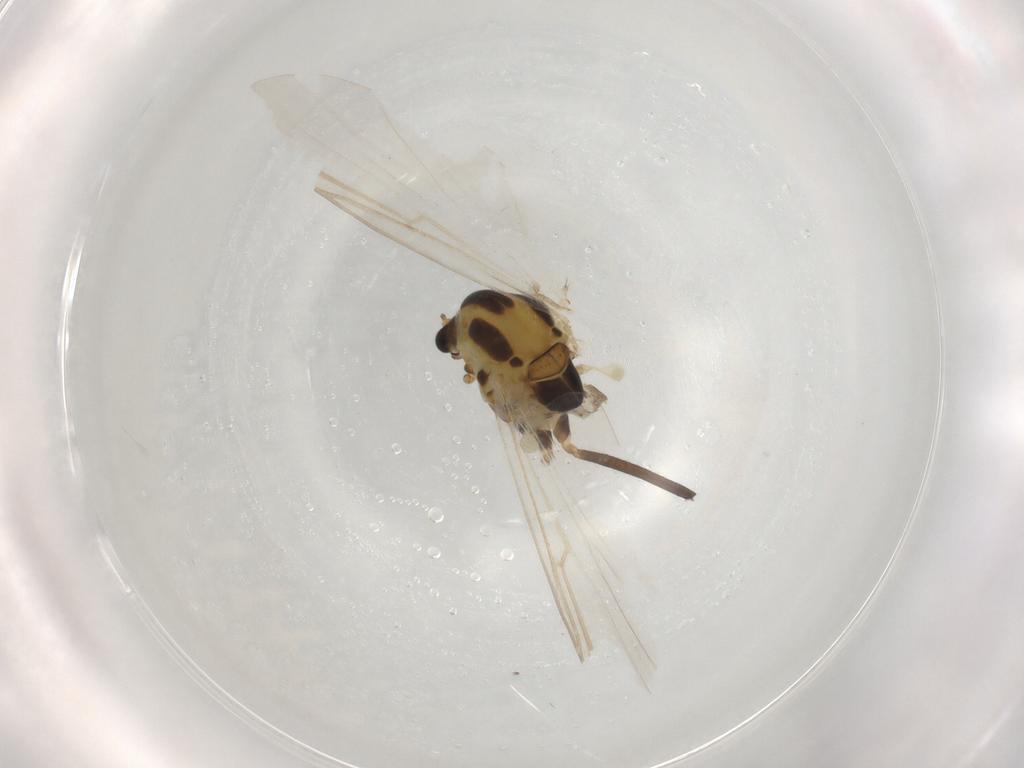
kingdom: Animalia
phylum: Arthropoda
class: Insecta
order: Diptera
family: Chironomidae
